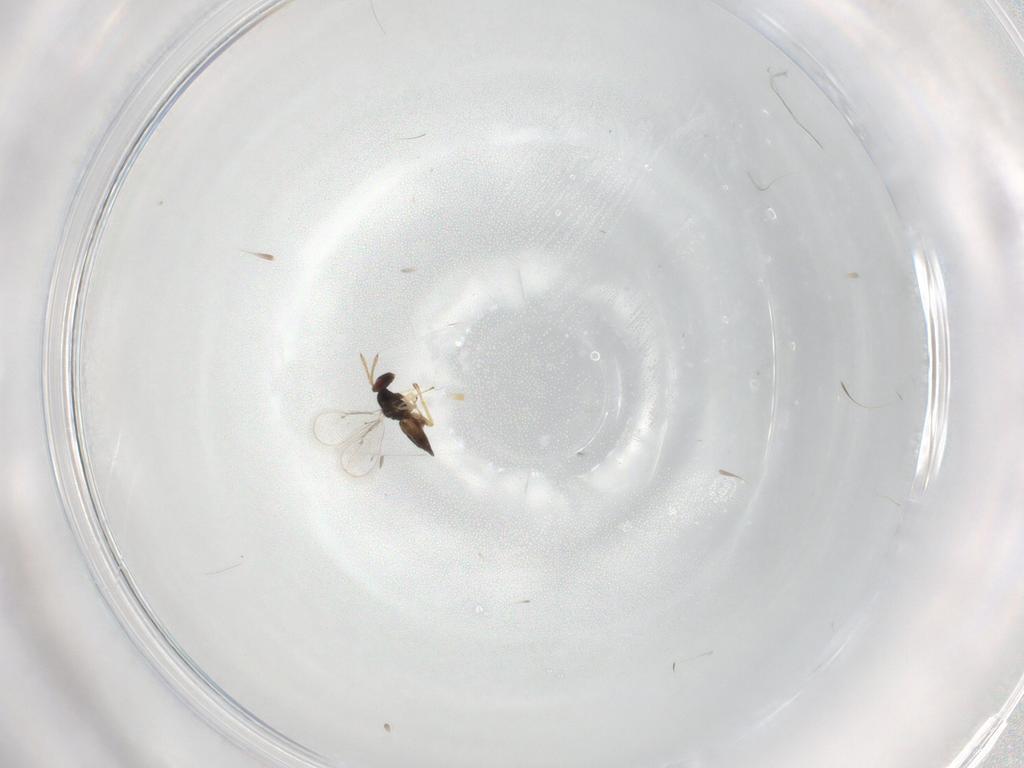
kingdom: Animalia
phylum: Arthropoda
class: Insecta
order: Hymenoptera
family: Eulophidae
